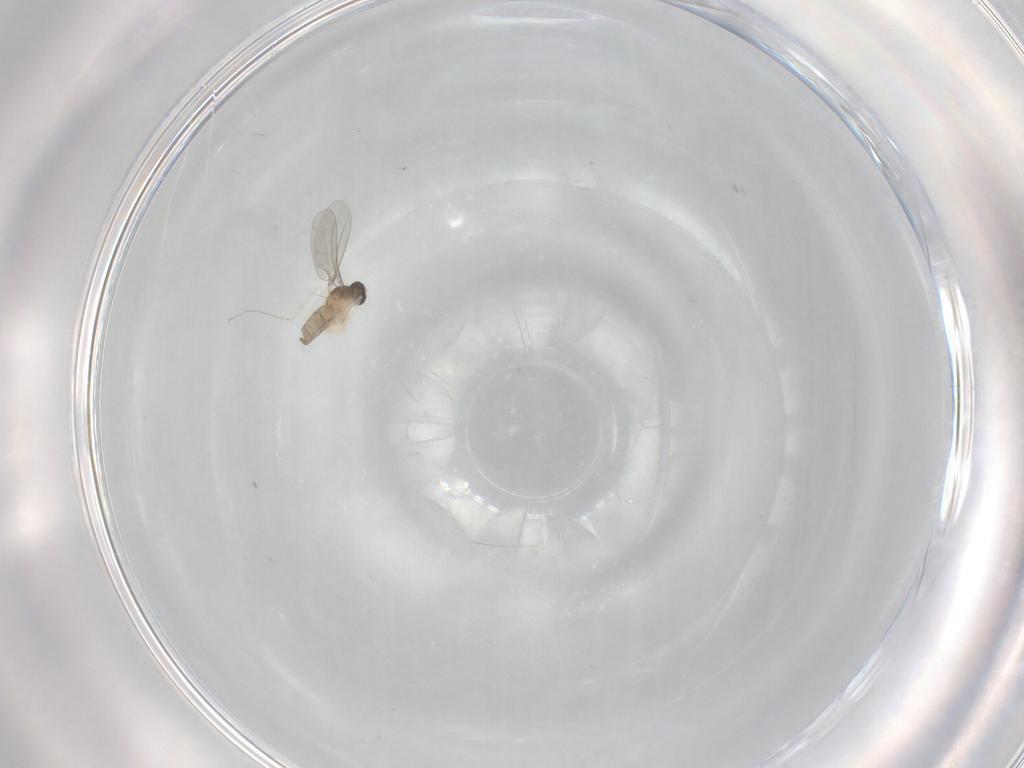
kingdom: Animalia
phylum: Arthropoda
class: Insecta
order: Diptera
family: Cecidomyiidae
